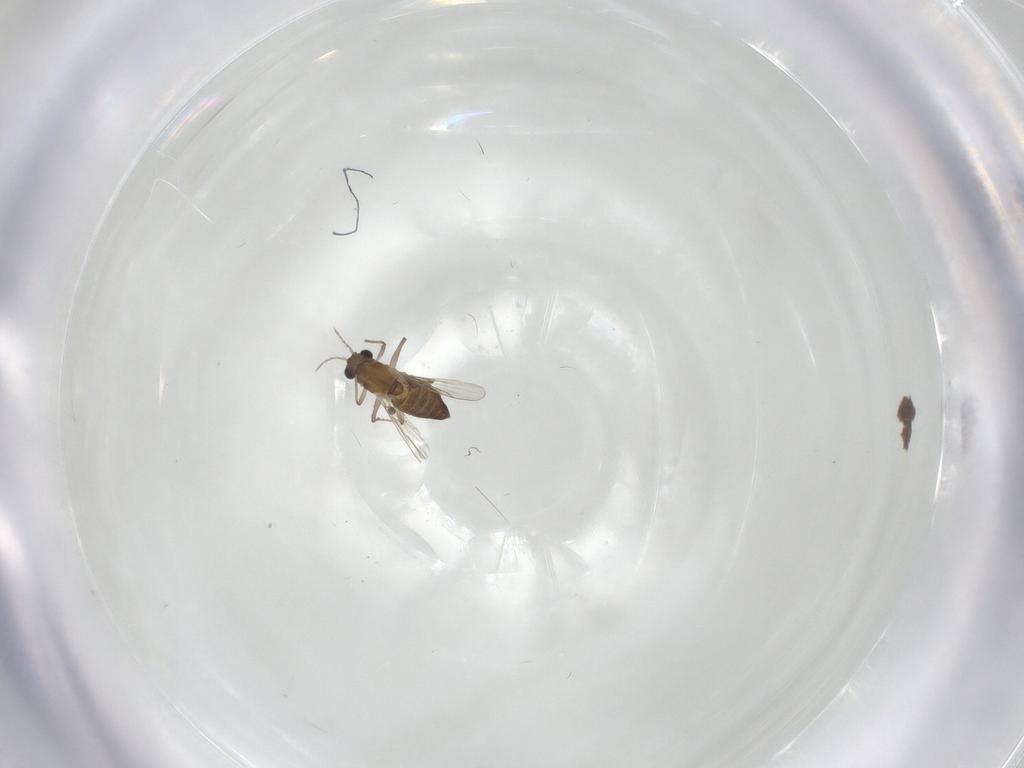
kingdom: Animalia
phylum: Arthropoda
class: Insecta
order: Diptera
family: Chironomidae
